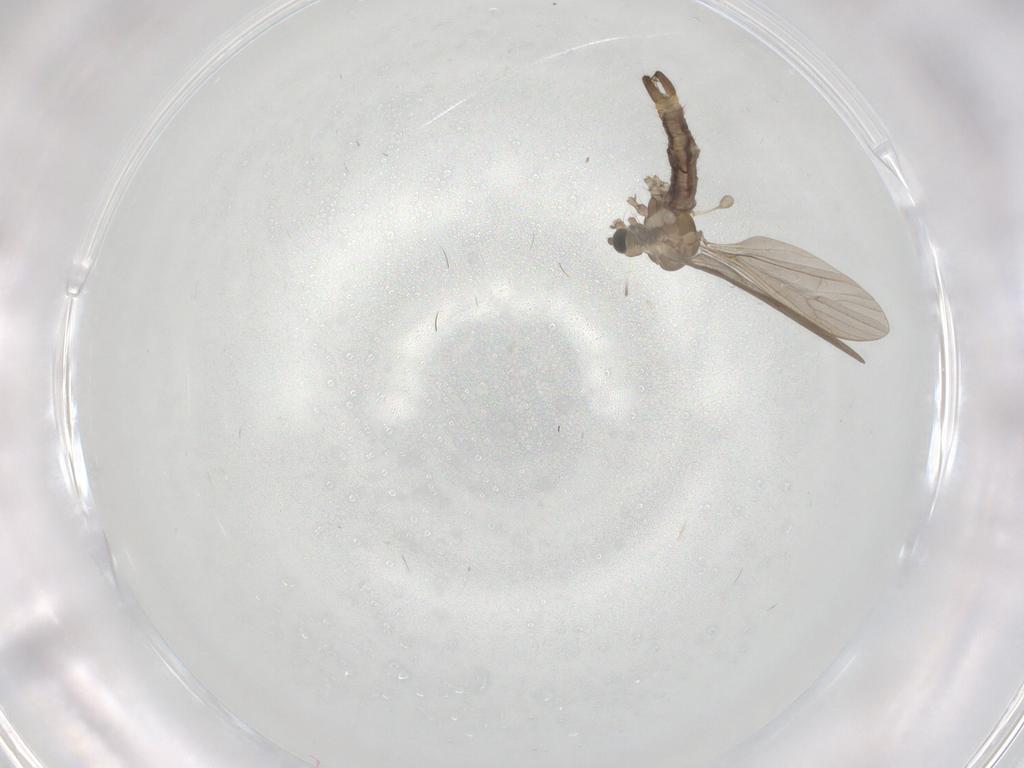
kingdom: Animalia
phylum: Arthropoda
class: Insecta
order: Diptera
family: Limoniidae
